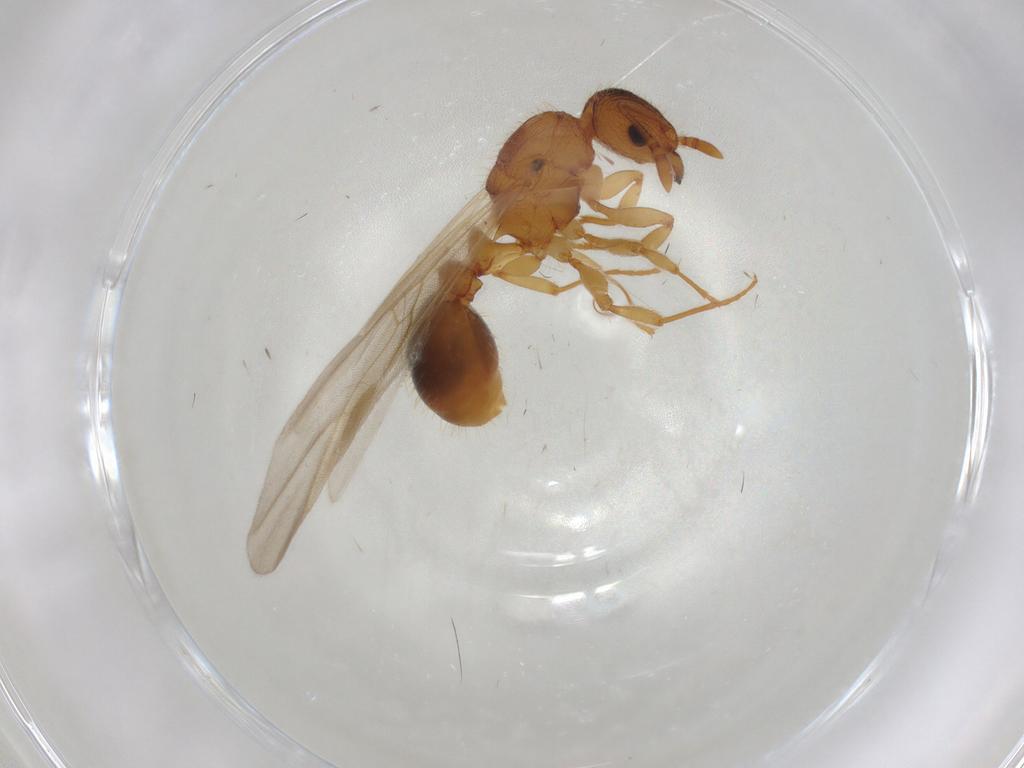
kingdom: Animalia
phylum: Arthropoda
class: Insecta
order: Hymenoptera
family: Formicidae
